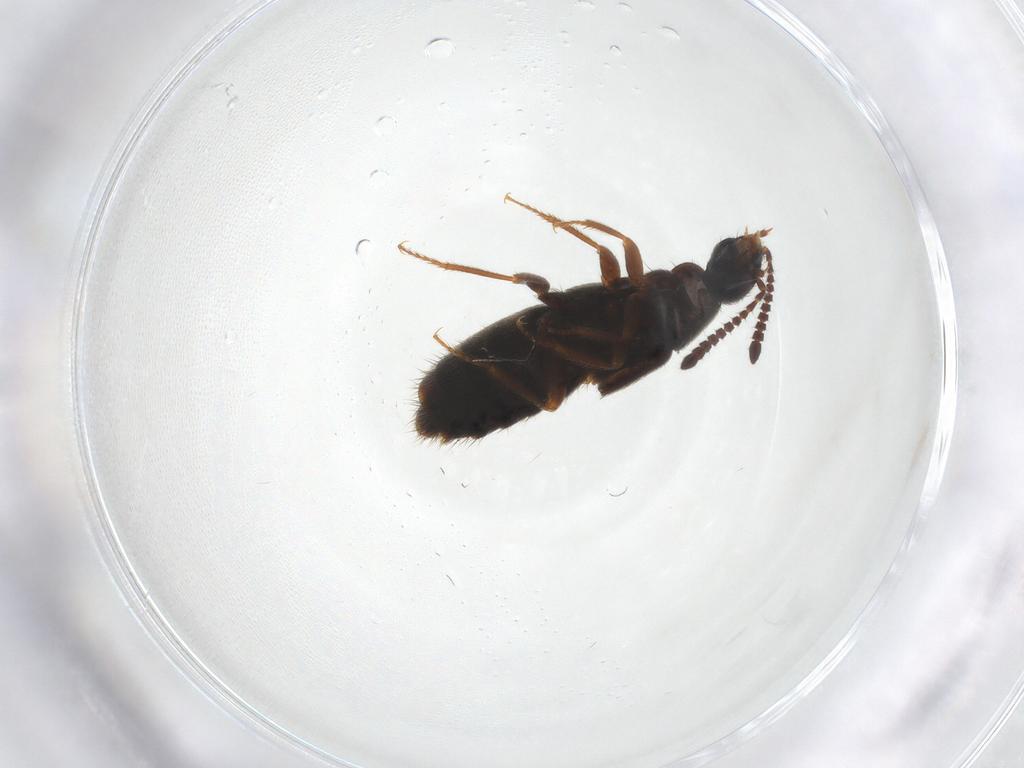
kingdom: Animalia
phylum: Arthropoda
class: Insecta
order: Coleoptera
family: Staphylinidae
